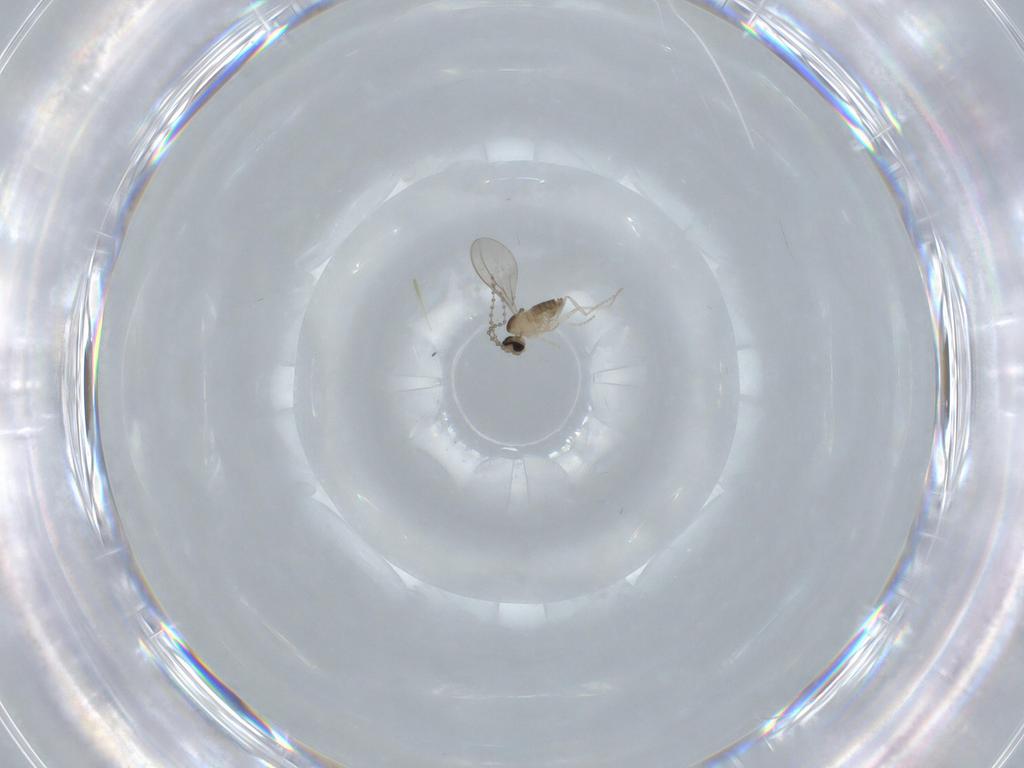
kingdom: Animalia
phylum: Arthropoda
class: Insecta
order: Diptera
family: Cecidomyiidae
